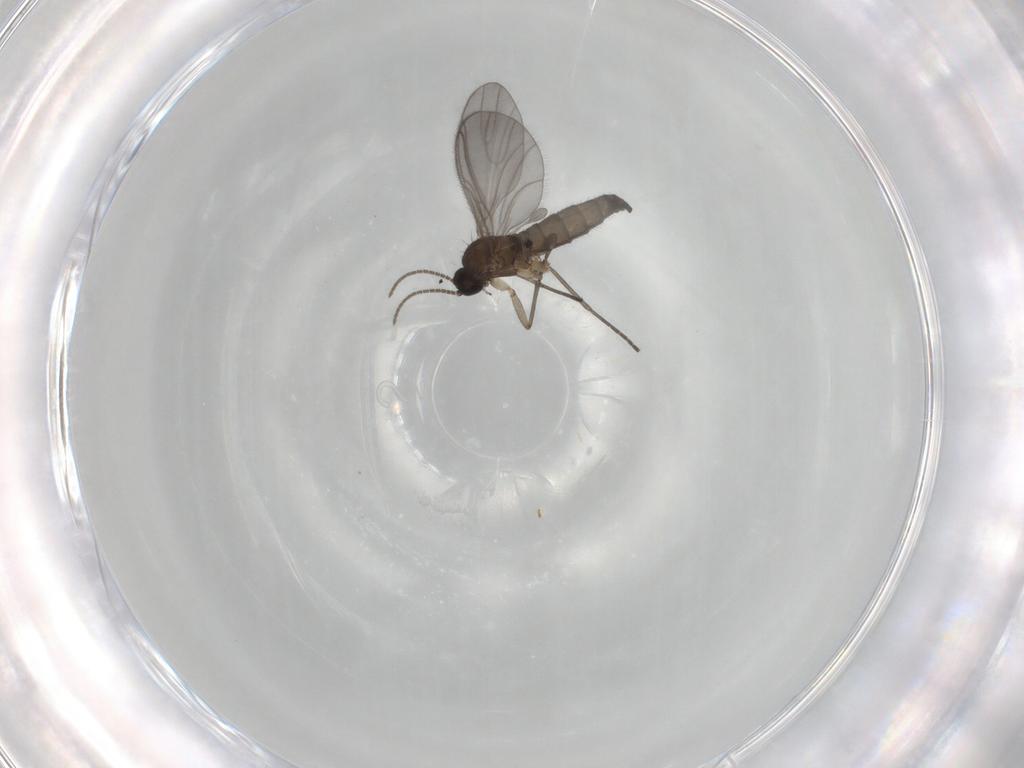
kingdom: Animalia
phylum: Arthropoda
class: Insecta
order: Diptera
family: Sciaridae
